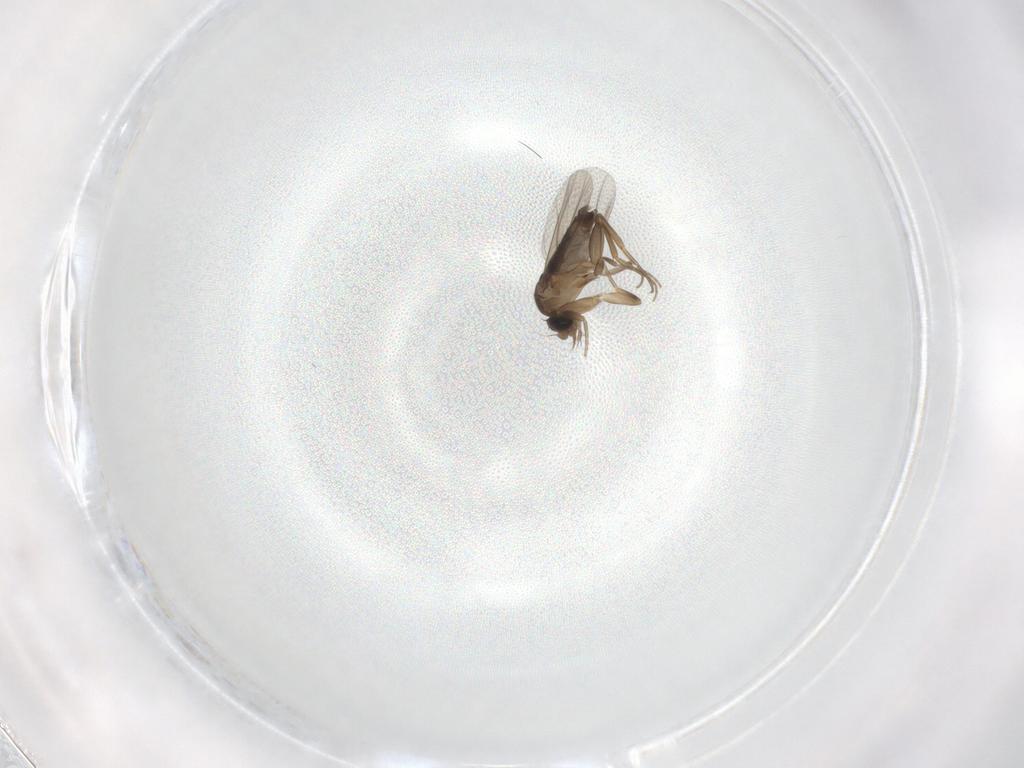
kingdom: Animalia
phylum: Arthropoda
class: Insecta
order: Diptera
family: Phoridae
